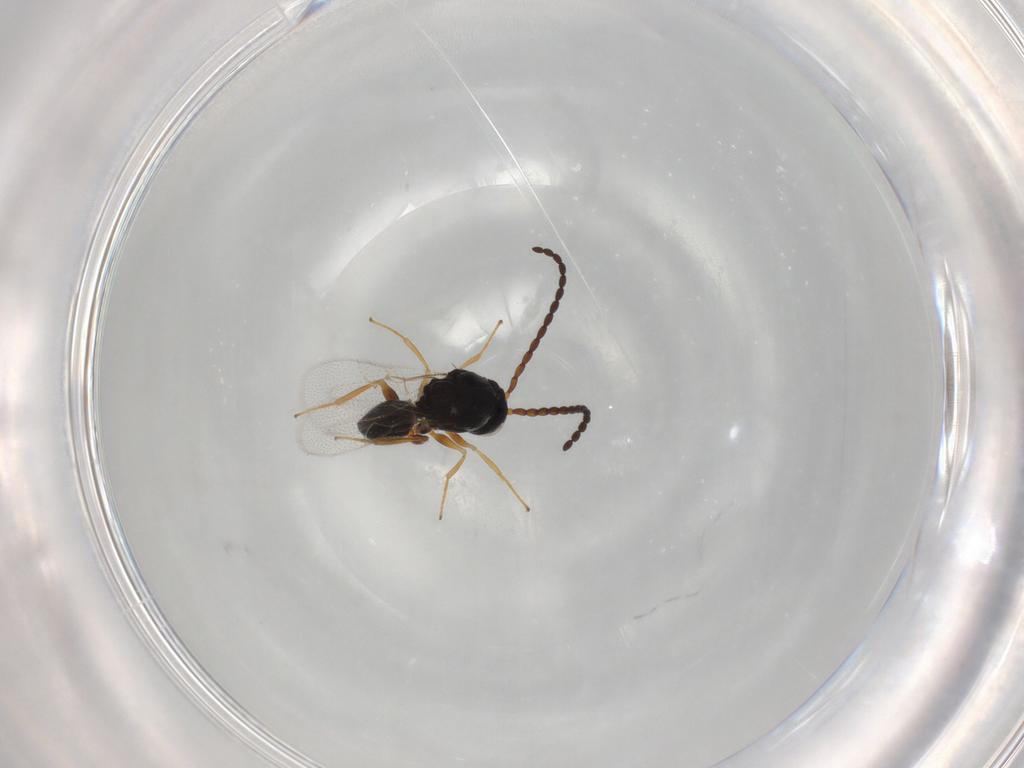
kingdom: Animalia
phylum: Arthropoda
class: Insecta
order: Hymenoptera
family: Figitidae
